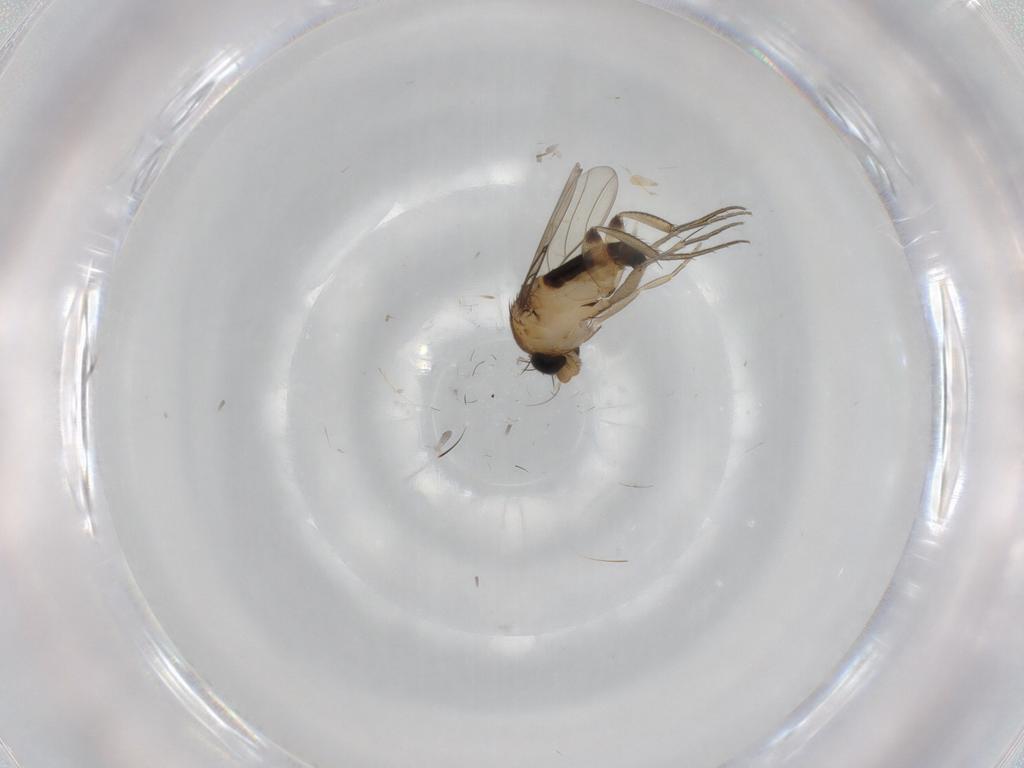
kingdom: Animalia
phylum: Arthropoda
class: Insecta
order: Diptera
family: Phoridae
